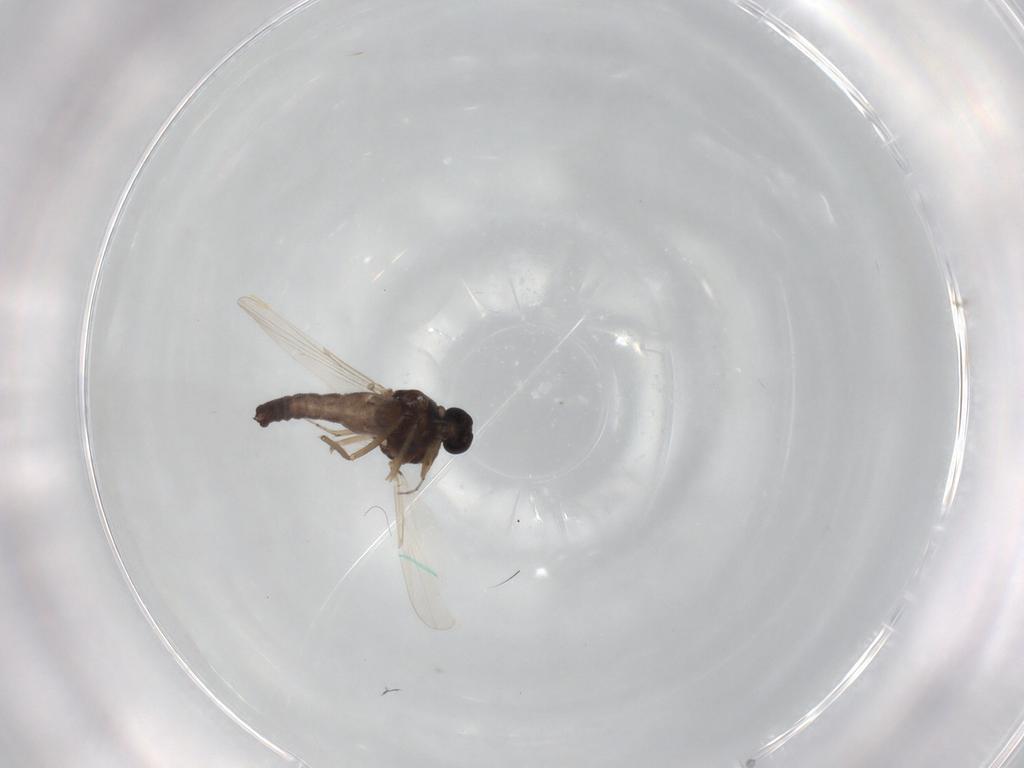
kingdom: Animalia
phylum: Arthropoda
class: Insecta
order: Diptera
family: Ceratopogonidae
